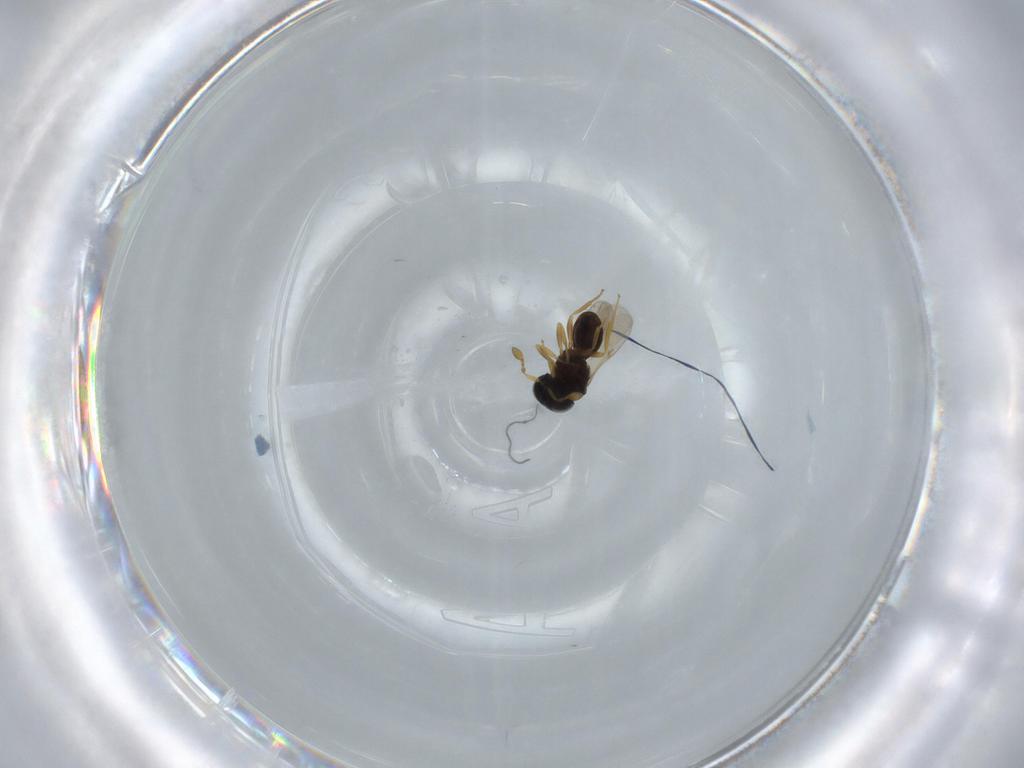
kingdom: Animalia
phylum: Arthropoda
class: Insecta
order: Hymenoptera
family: Scelionidae
